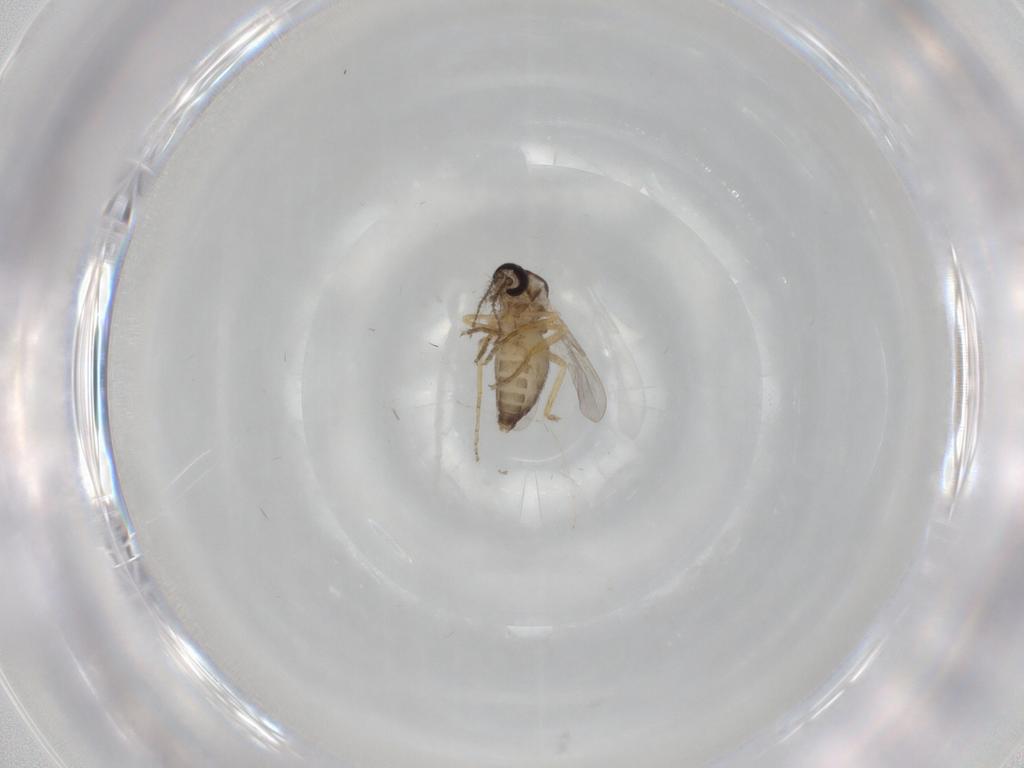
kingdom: Animalia
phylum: Arthropoda
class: Insecta
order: Diptera
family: Ceratopogonidae
